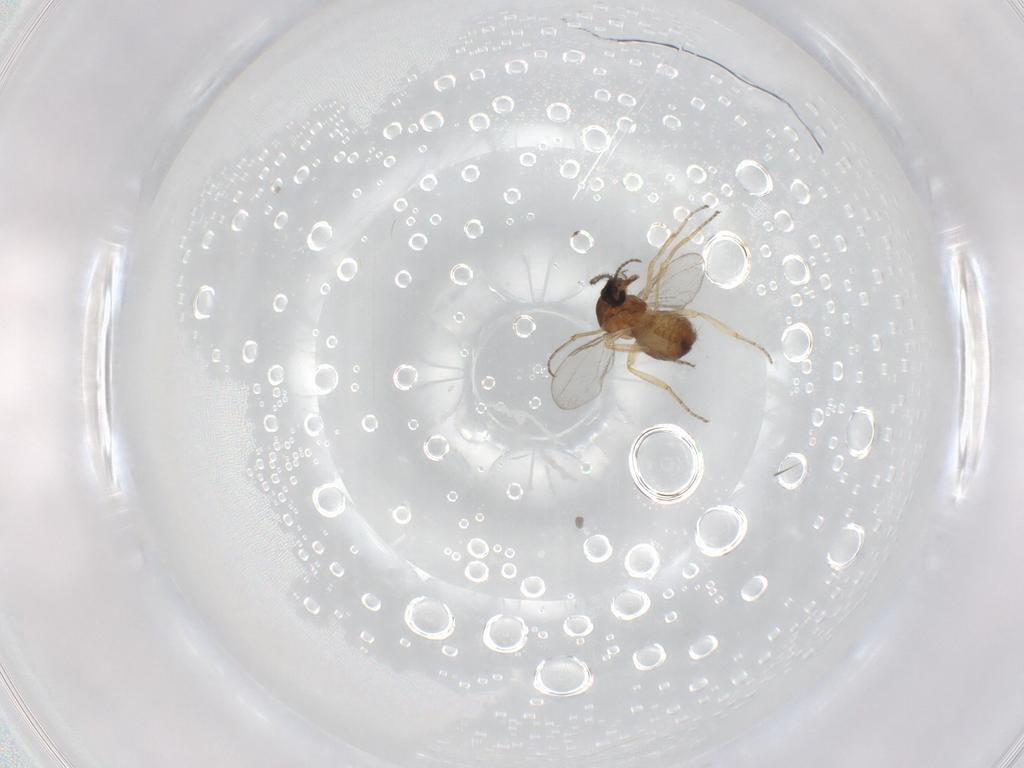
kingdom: Animalia
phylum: Arthropoda
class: Insecta
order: Diptera
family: Ceratopogonidae
